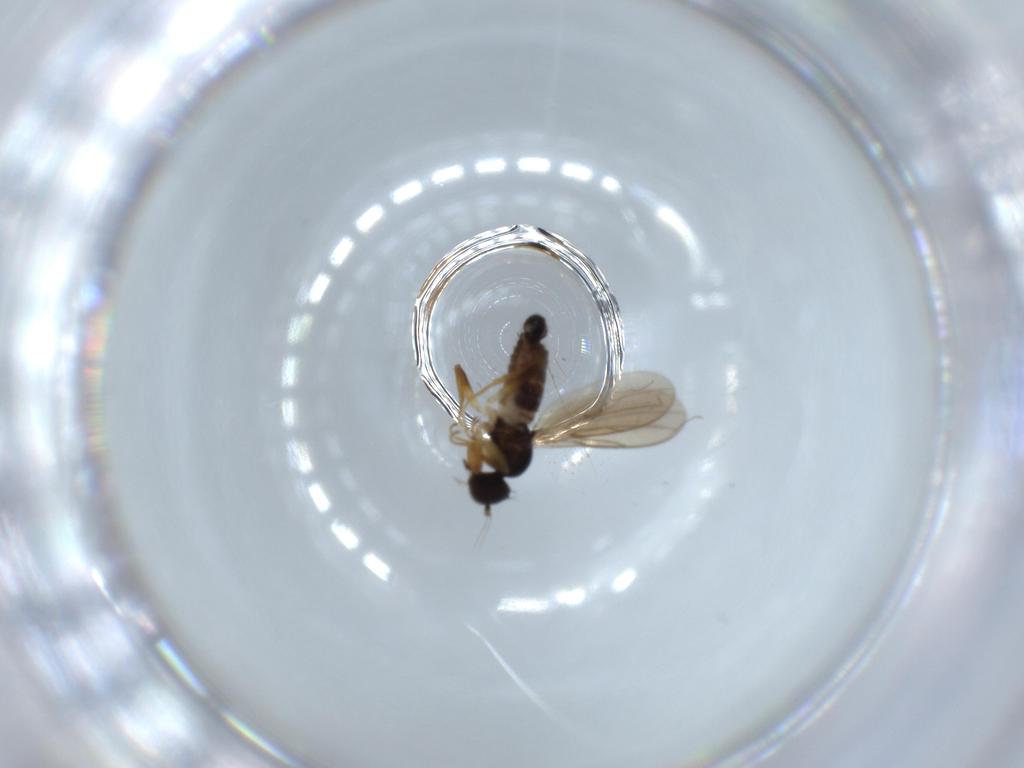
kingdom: Animalia
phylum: Arthropoda
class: Insecta
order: Diptera
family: Hybotidae
